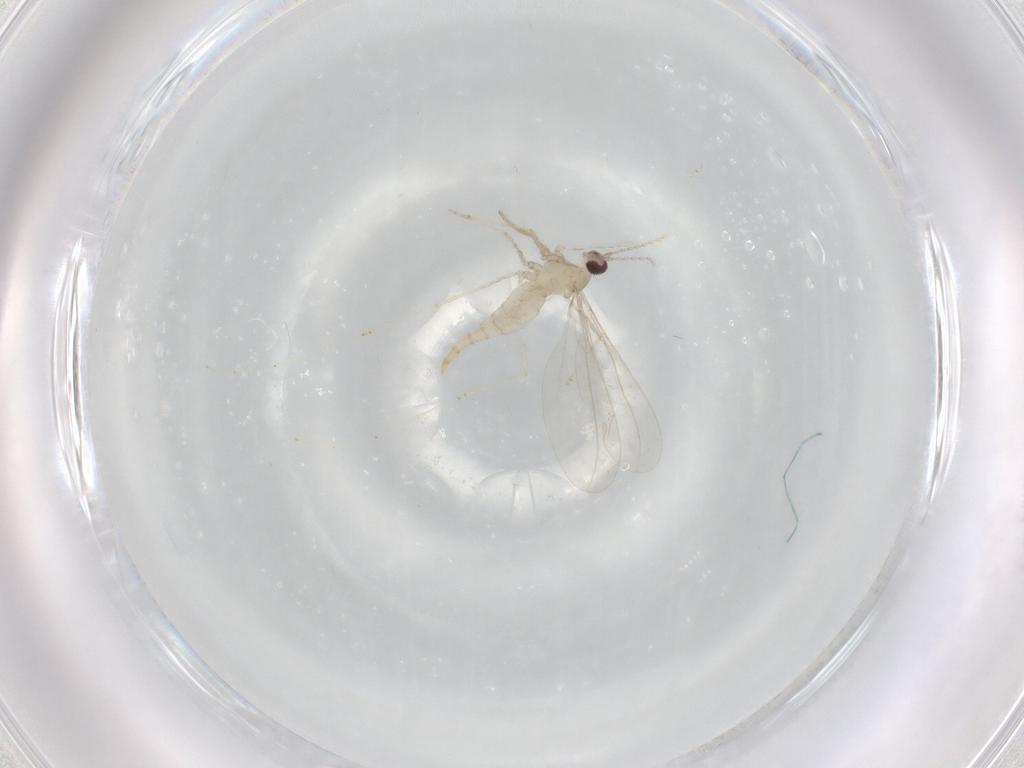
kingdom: Animalia
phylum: Arthropoda
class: Insecta
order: Diptera
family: Cecidomyiidae
